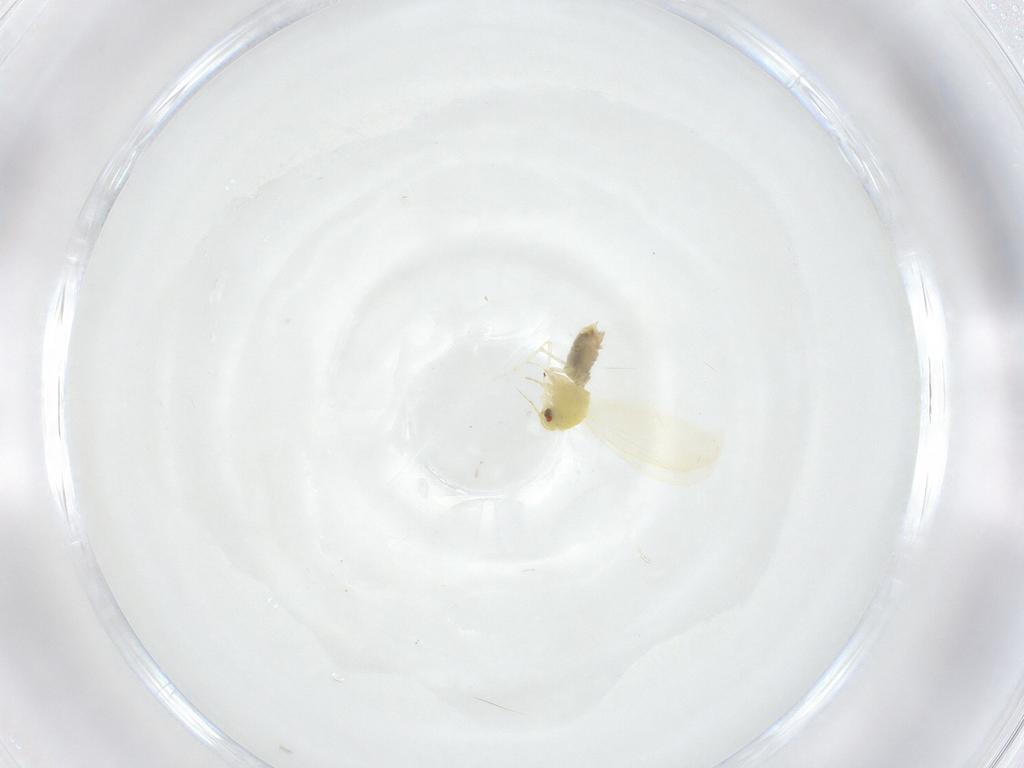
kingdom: Animalia
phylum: Arthropoda
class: Insecta
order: Hemiptera
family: Aleyrodidae
